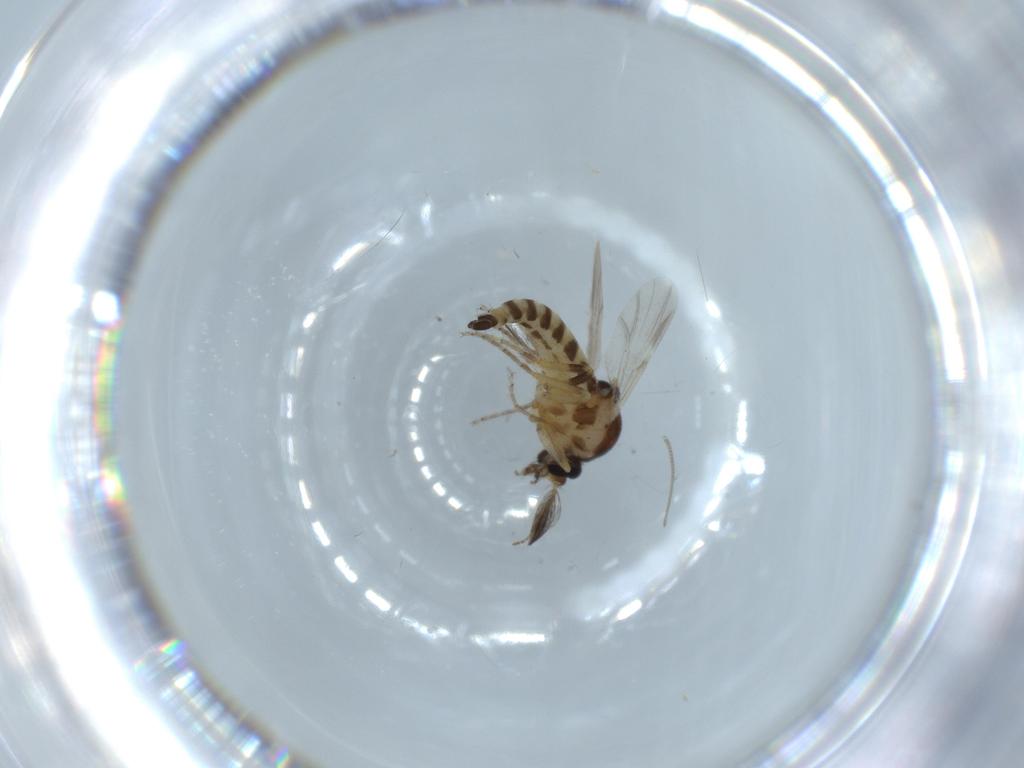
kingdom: Animalia
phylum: Arthropoda
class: Insecta
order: Diptera
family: Ceratopogonidae
